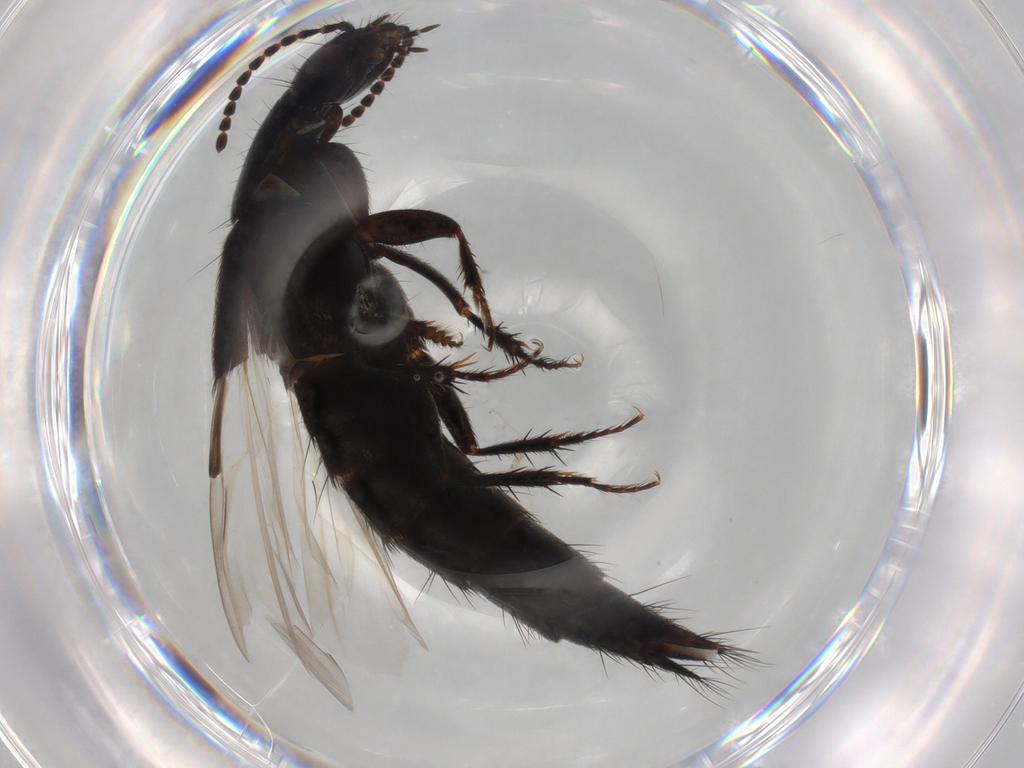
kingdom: Animalia
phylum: Arthropoda
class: Insecta
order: Coleoptera
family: Staphylinidae
